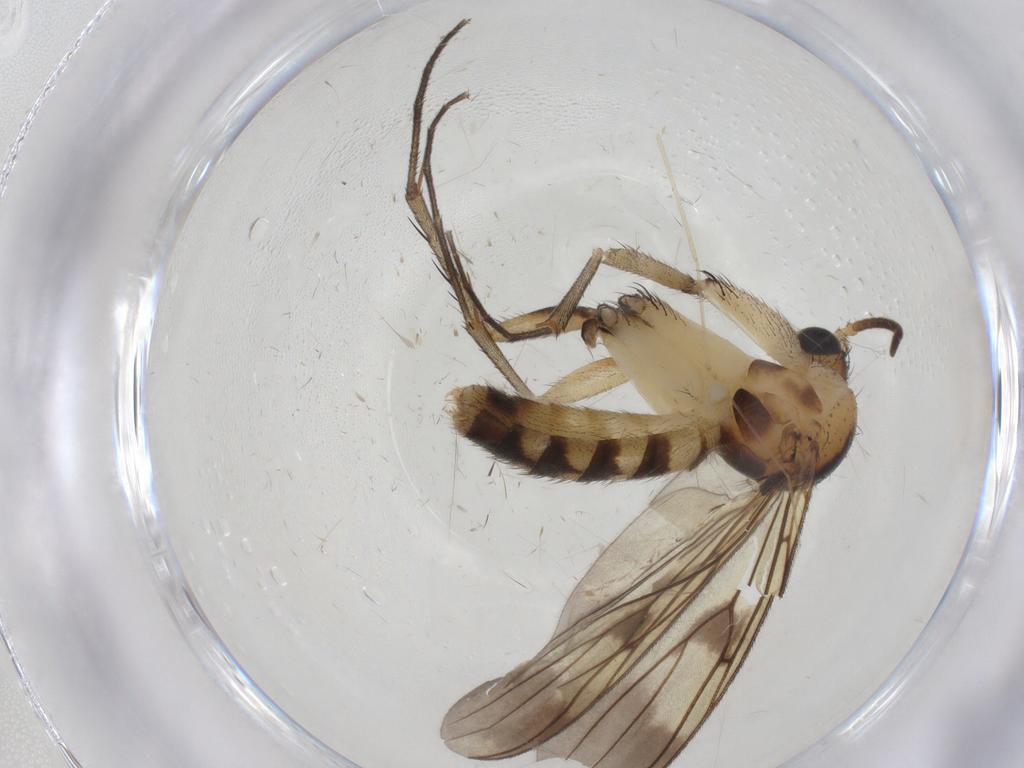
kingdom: Animalia
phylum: Arthropoda
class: Insecta
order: Diptera
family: Mycetophilidae
